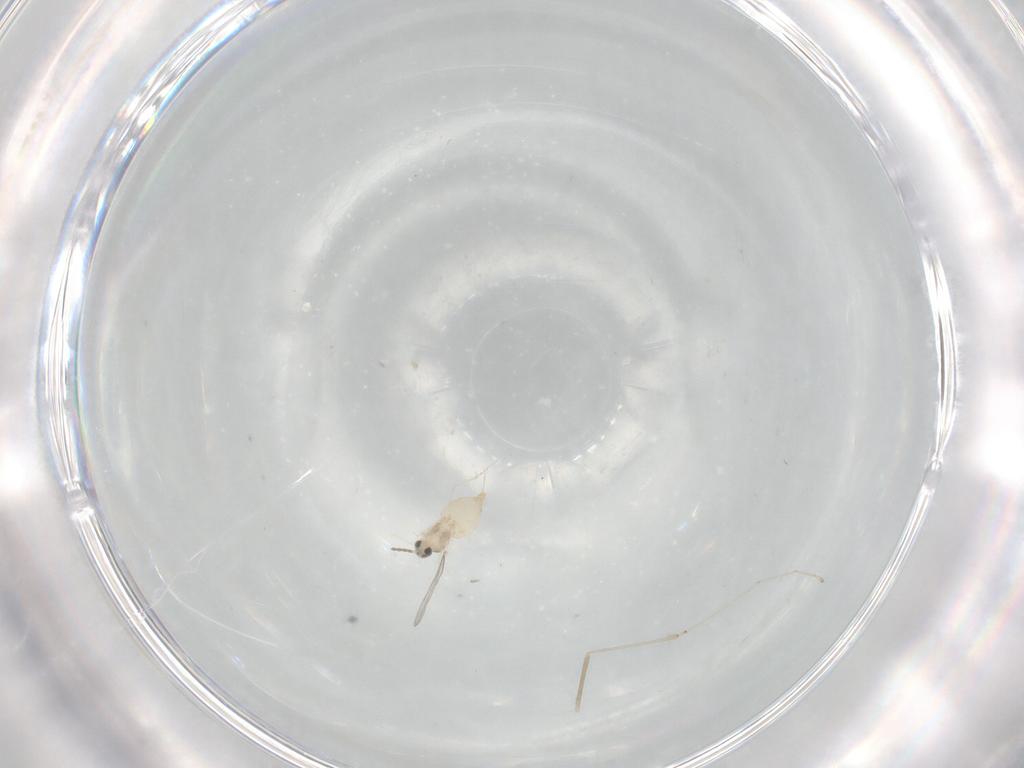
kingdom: Animalia
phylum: Arthropoda
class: Insecta
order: Diptera
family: Cecidomyiidae
